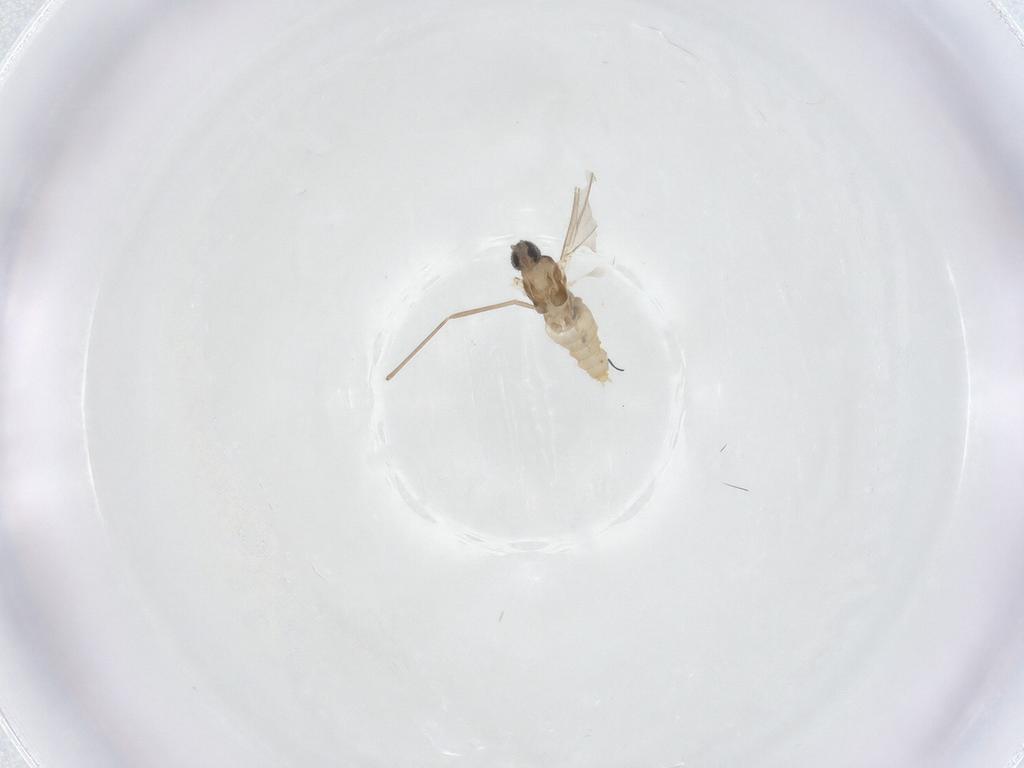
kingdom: Animalia
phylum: Arthropoda
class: Insecta
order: Diptera
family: Cecidomyiidae
